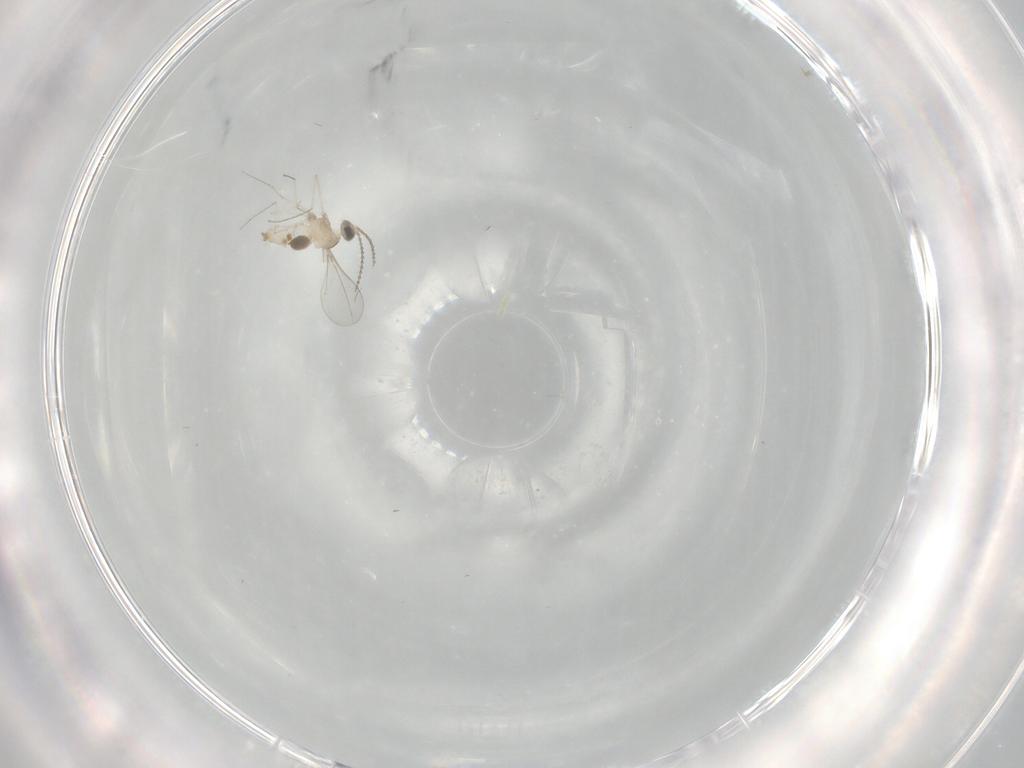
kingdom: Animalia
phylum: Arthropoda
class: Insecta
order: Diptera
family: Cecidomyiidae
